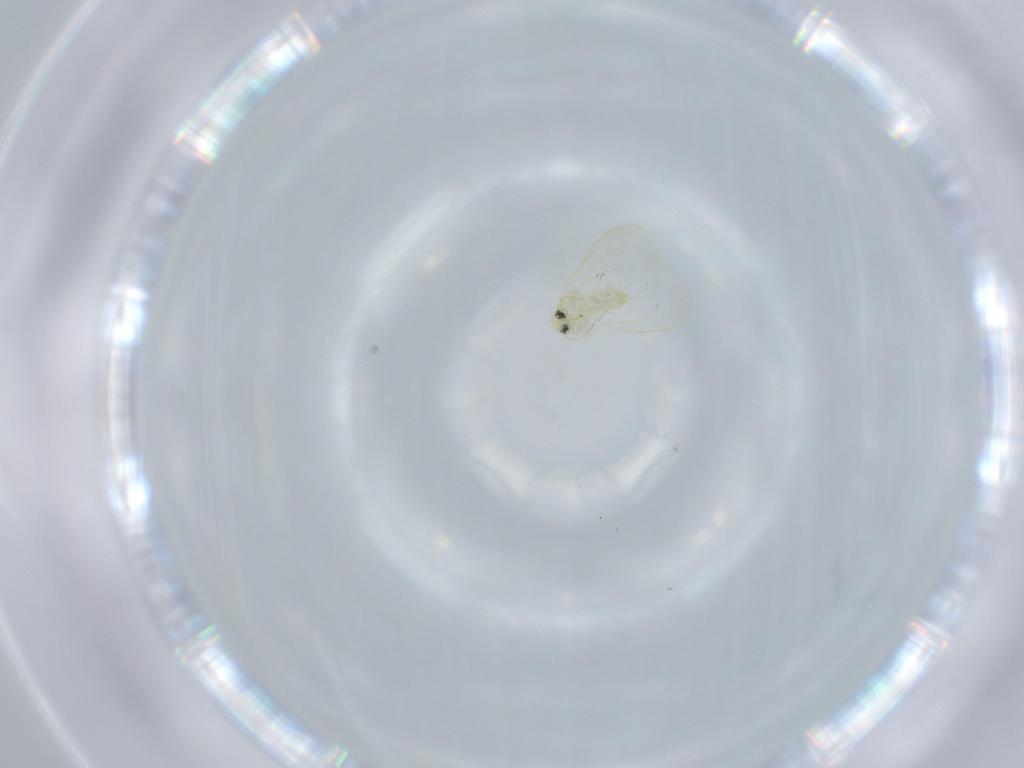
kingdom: Animalia
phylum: Arthropoda
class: Insecta
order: Hemiptera
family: Aleyrodidae
